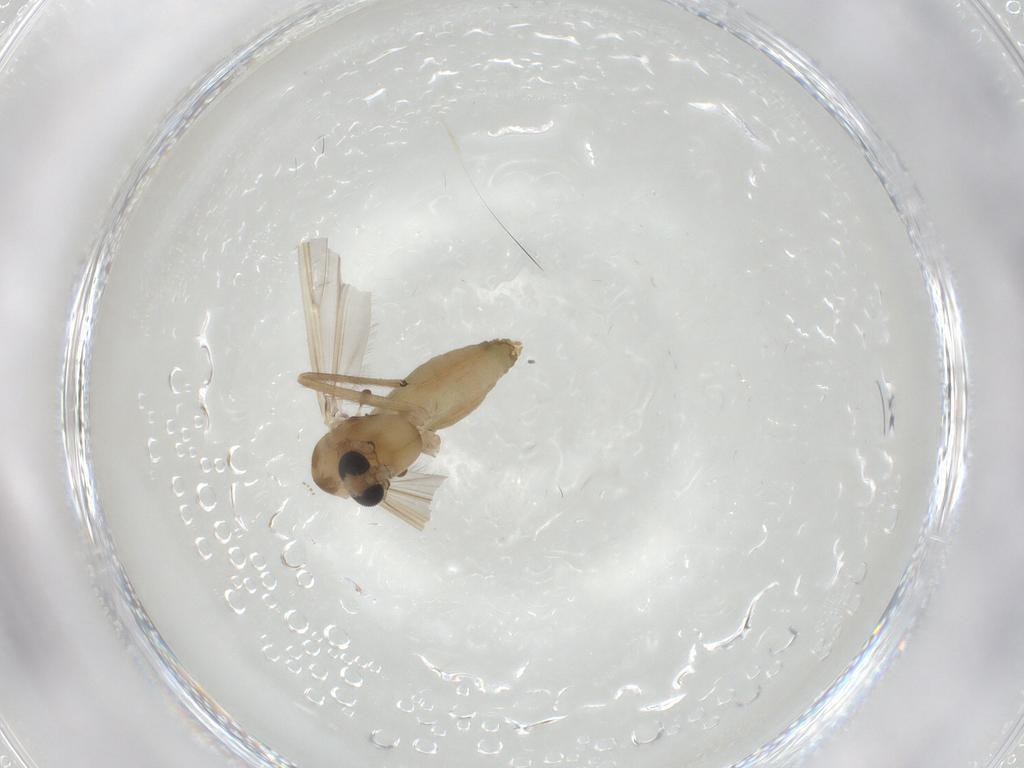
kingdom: Animalia
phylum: Arthropoda
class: Insecta
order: Diptera
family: Chironomidae
